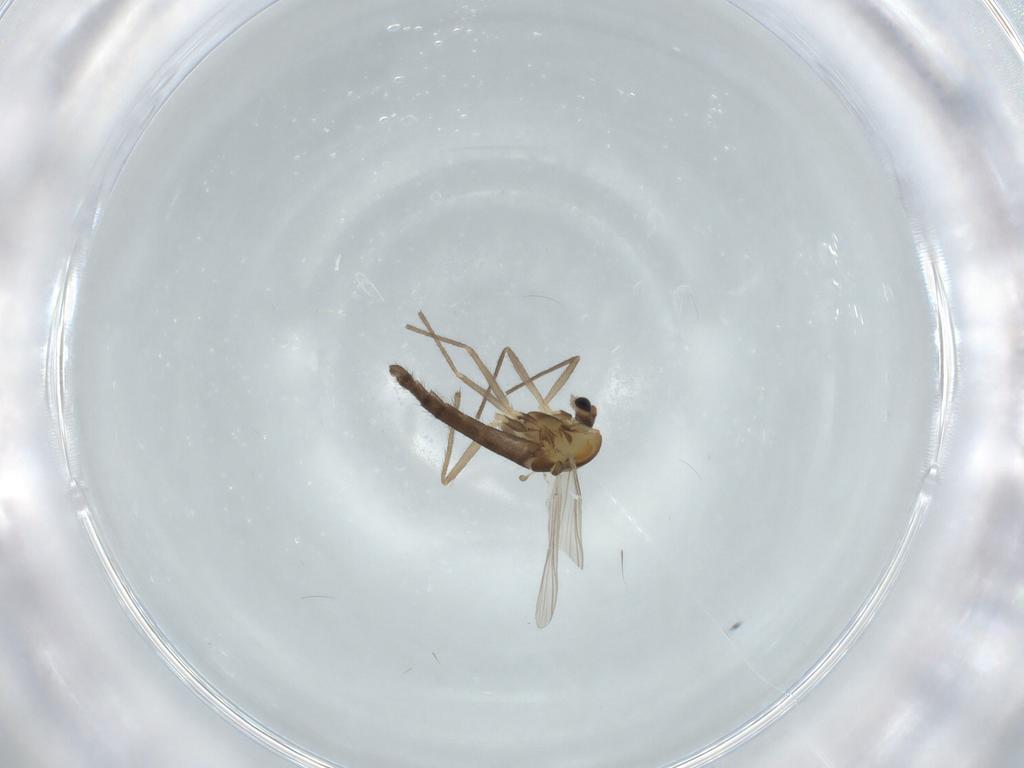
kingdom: Animalia
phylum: Arthropoda
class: Insecta
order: Diptera
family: Chironomidae
